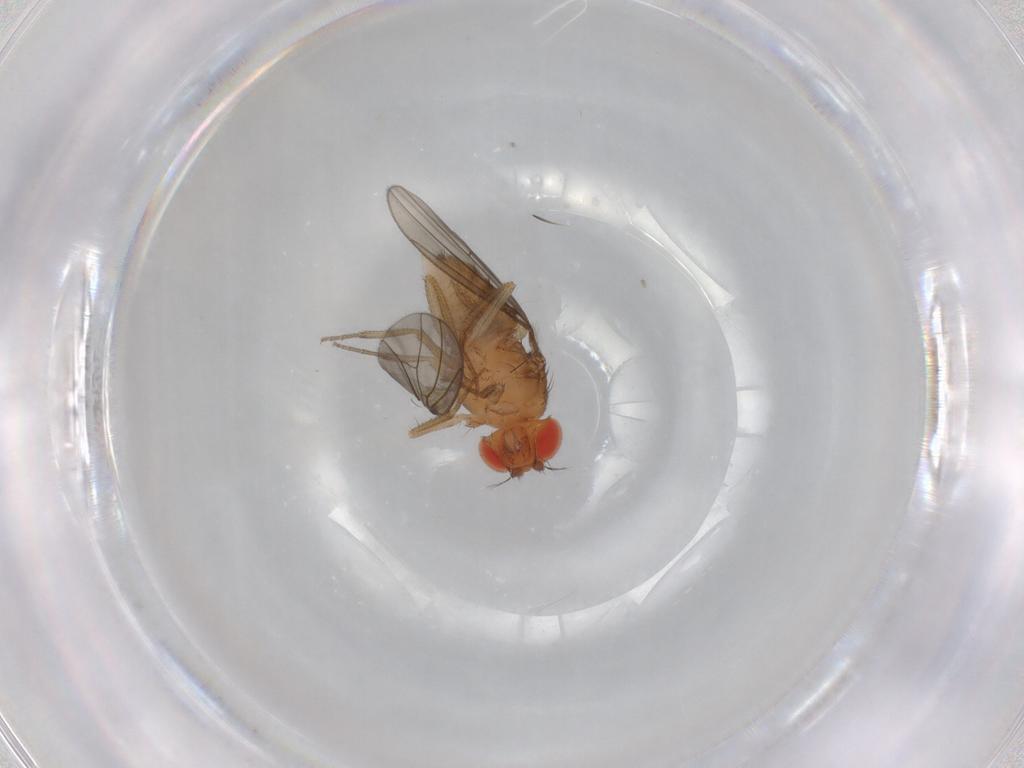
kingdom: Animalia
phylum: Arthropoda
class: Insecta
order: Diptera
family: Drosophilidae
